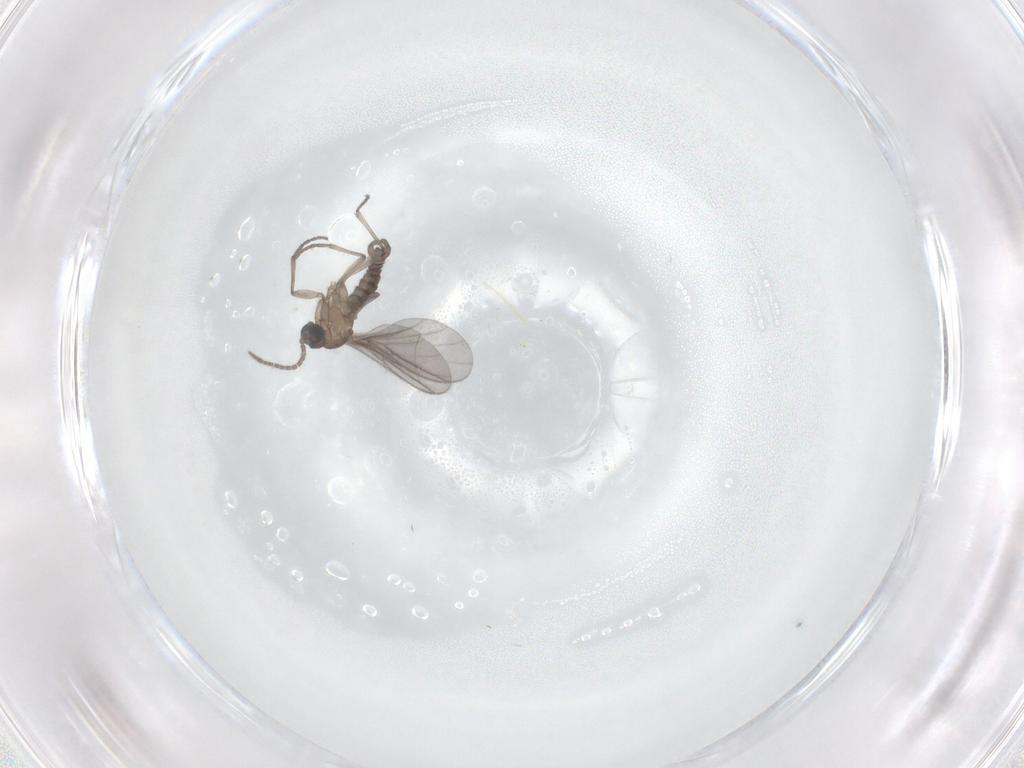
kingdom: Animalia
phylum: Arthropoda
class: Insecta
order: Diptera
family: Sciaridae
